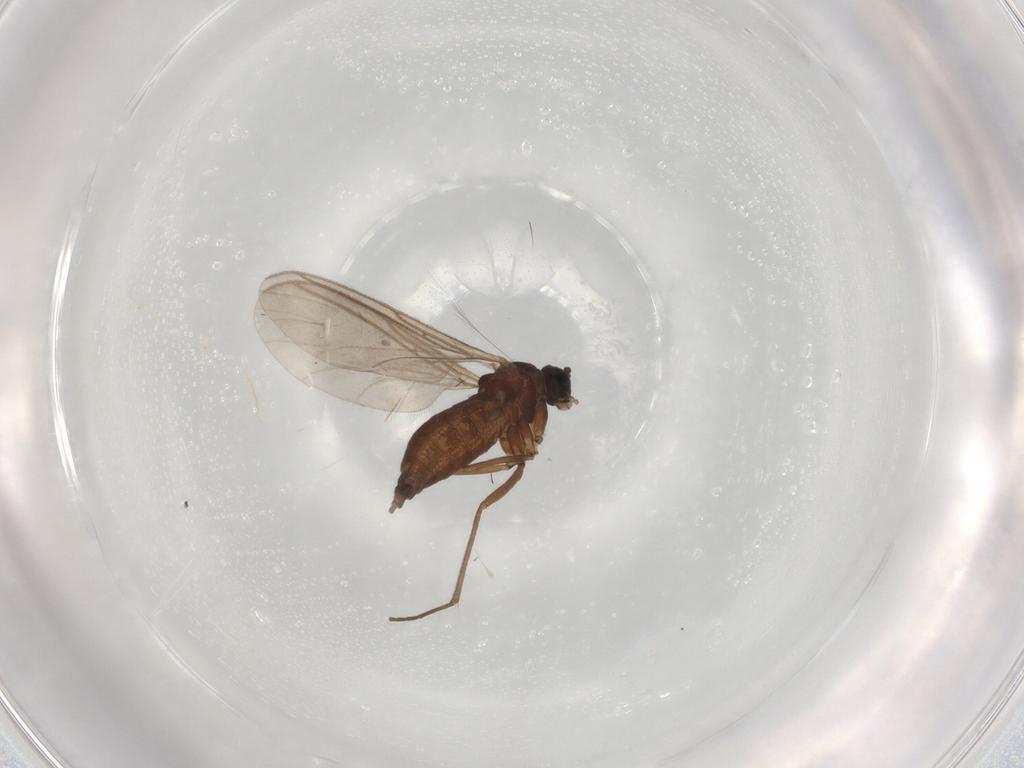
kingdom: Animalia
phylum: Arthropoda
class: Insecta
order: Diptera
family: Sciaridae
